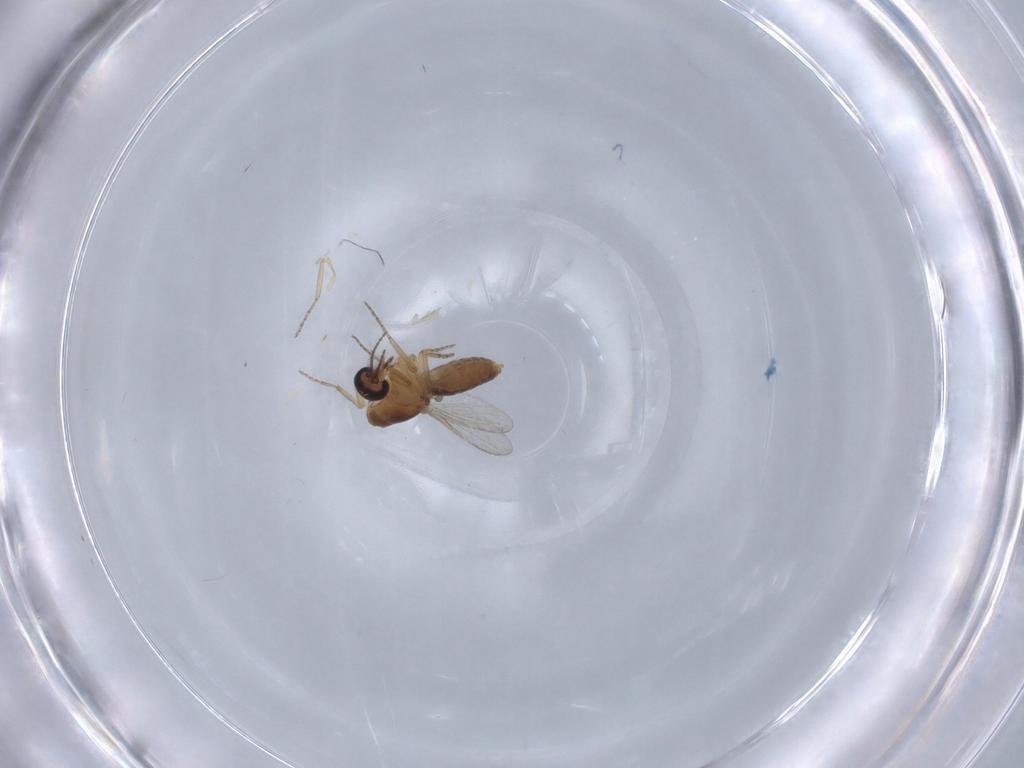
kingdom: Animalia
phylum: Arthropoda
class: Insecta
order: Diptera
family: Ceratopogonidae
